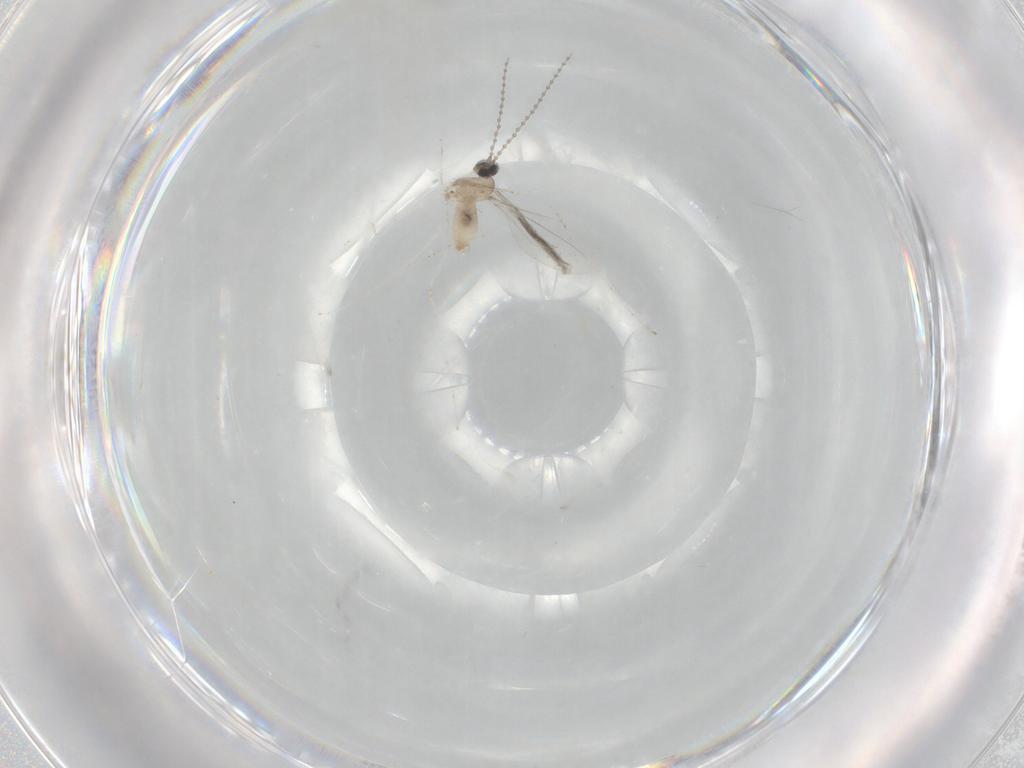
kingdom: Animalia
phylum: Arthropoda
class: Insecta
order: Diptera
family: Cecidomyiidae
